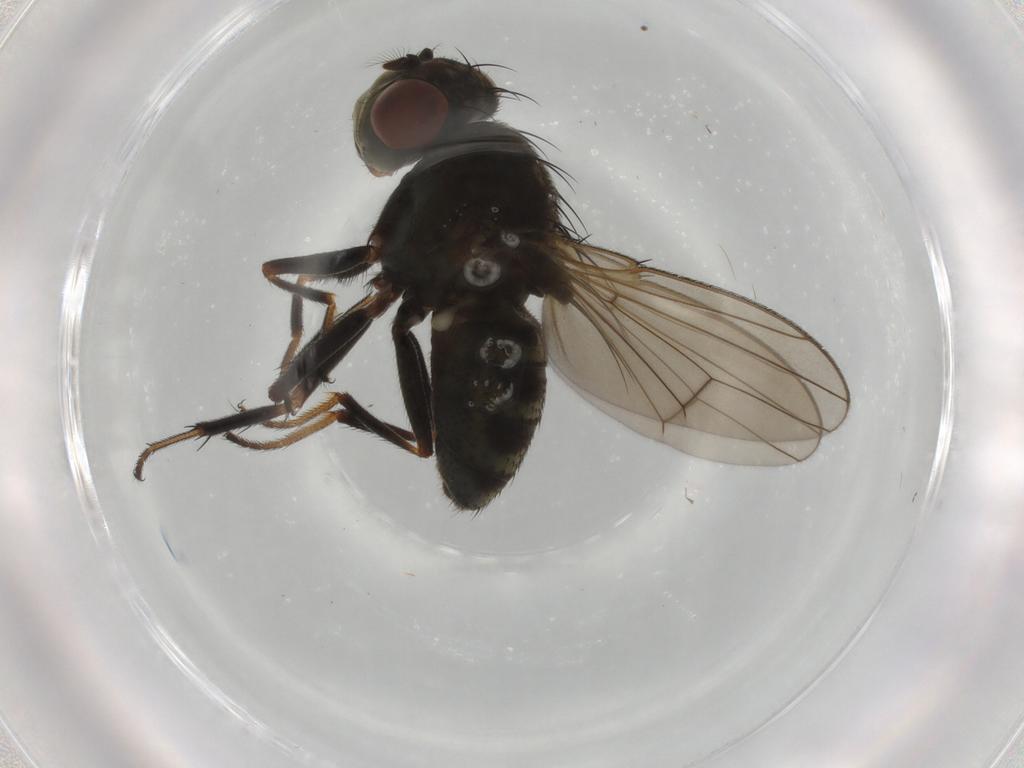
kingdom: Animalia
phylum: Arthropoda
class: Insecta
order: Diptera
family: Ephydridae
